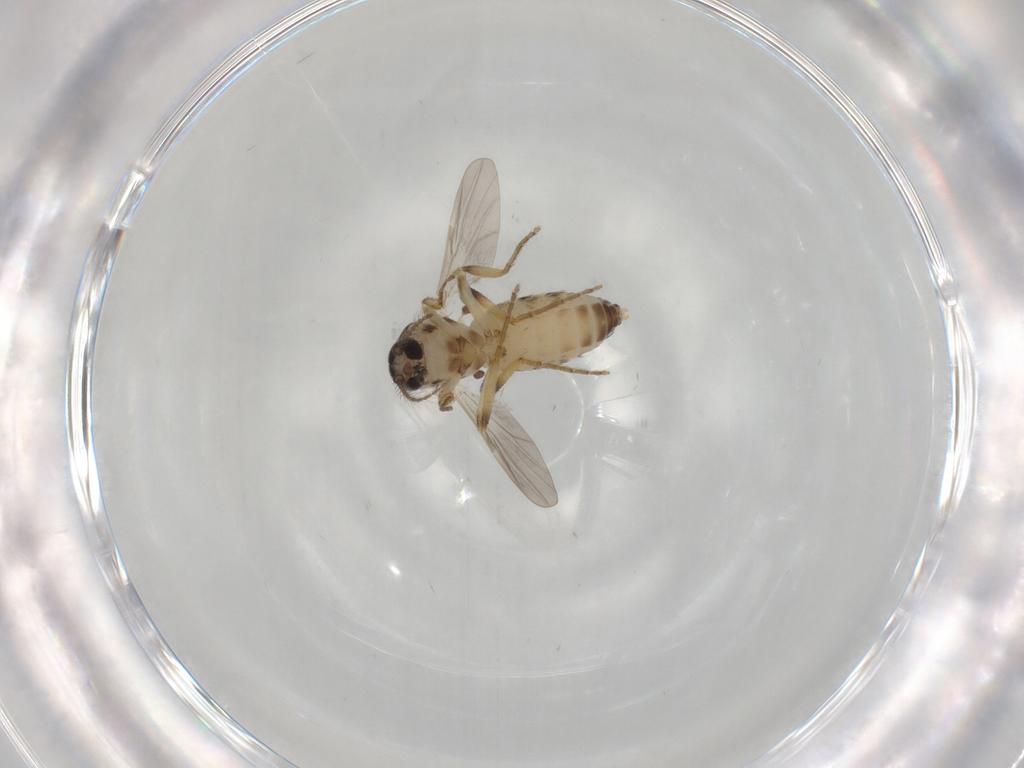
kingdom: Animalia
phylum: Arthropoda
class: Insecta
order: Diptera
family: Ceratopogonidae
